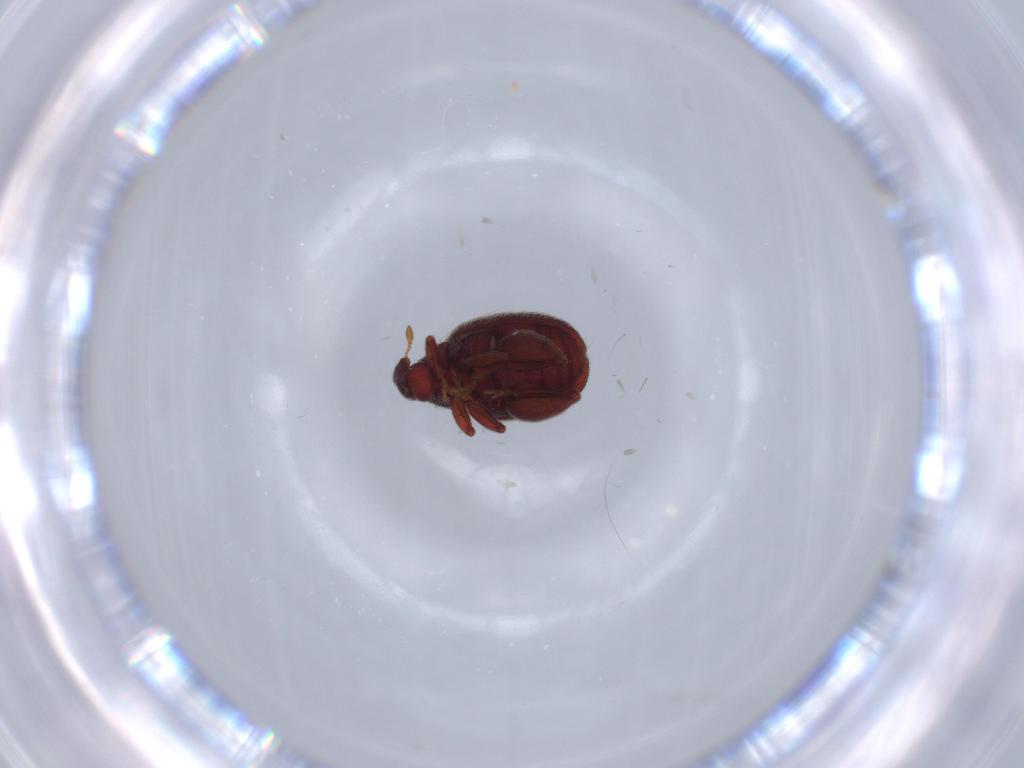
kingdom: Animalia
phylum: Arthropoda
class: Insecta
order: Coleoptera
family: Curculionidae
